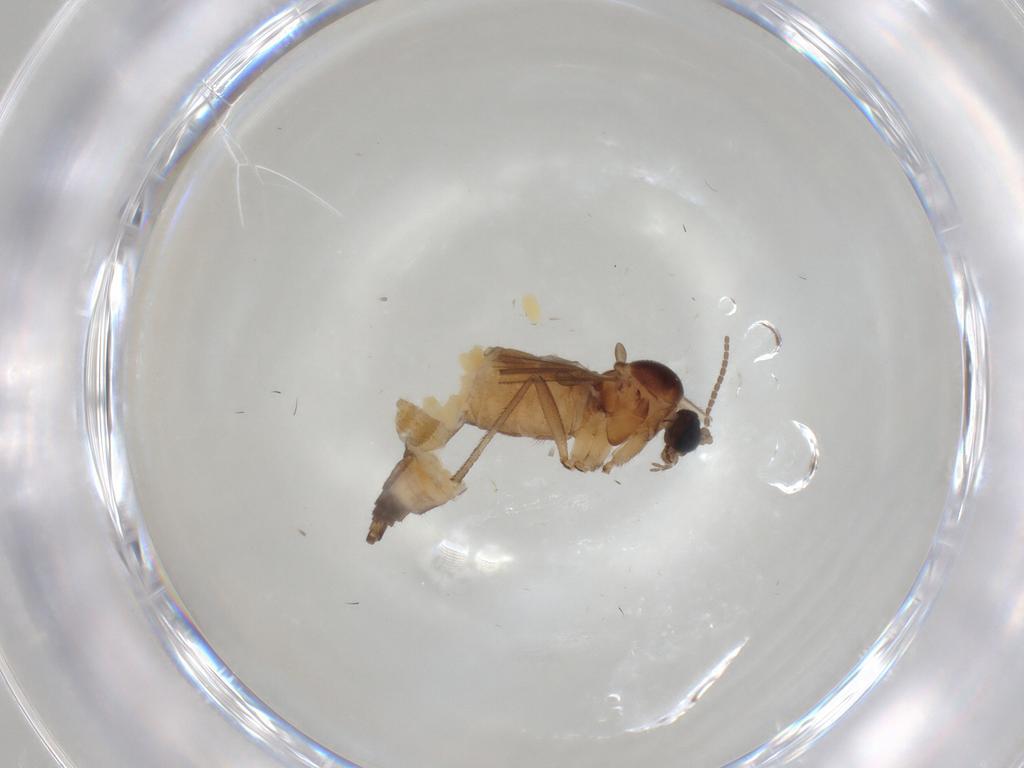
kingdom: Animalia
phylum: Arthropoda
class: Insecta
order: Diptera
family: Sciaridae
